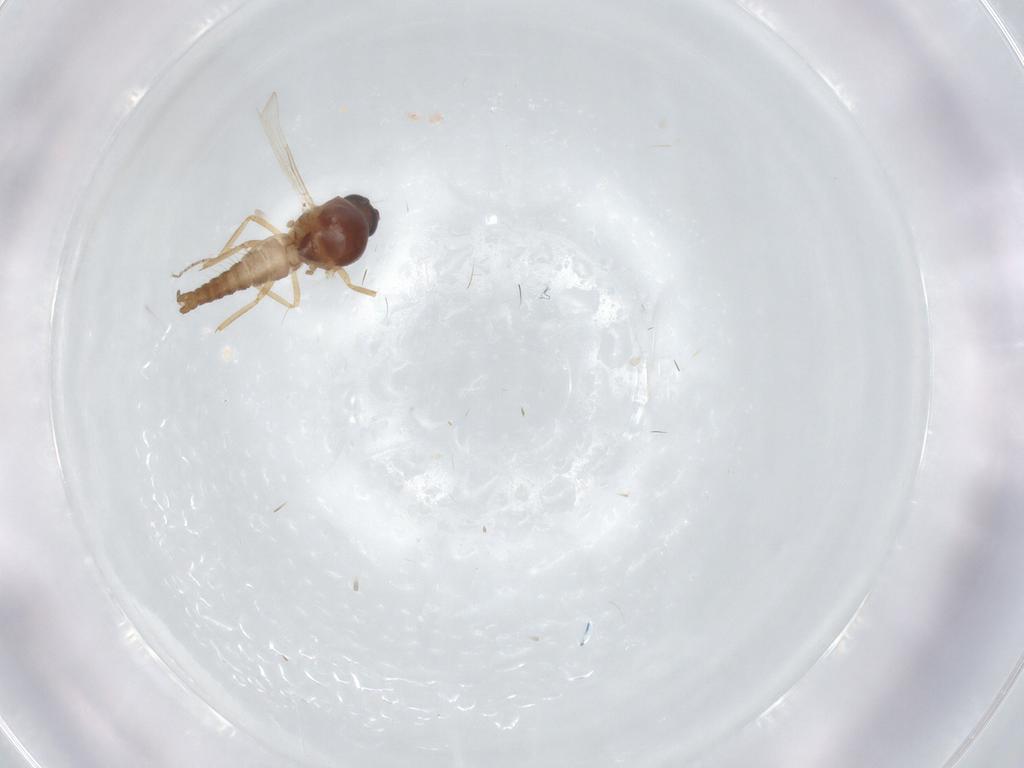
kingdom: Animalia
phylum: Arthropoda
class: Insecta
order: Diptera
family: Ceratopogonidae
